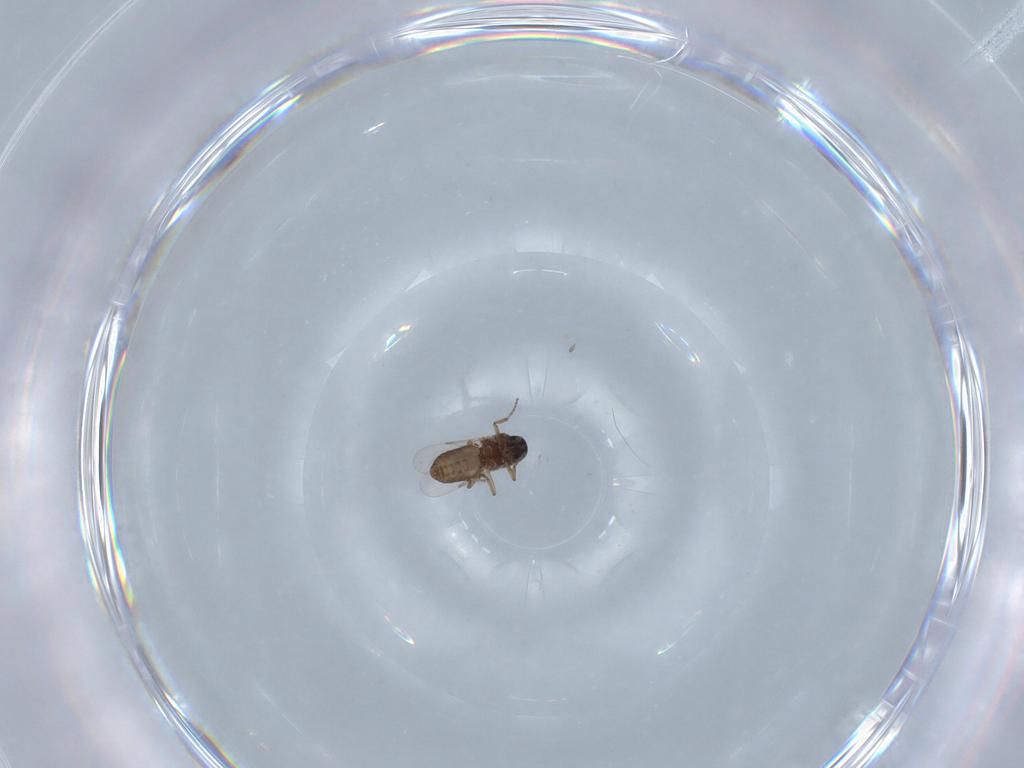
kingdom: Animalia
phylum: Arthropoda
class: Insecta
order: Diptera
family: Ceratopogonidae
